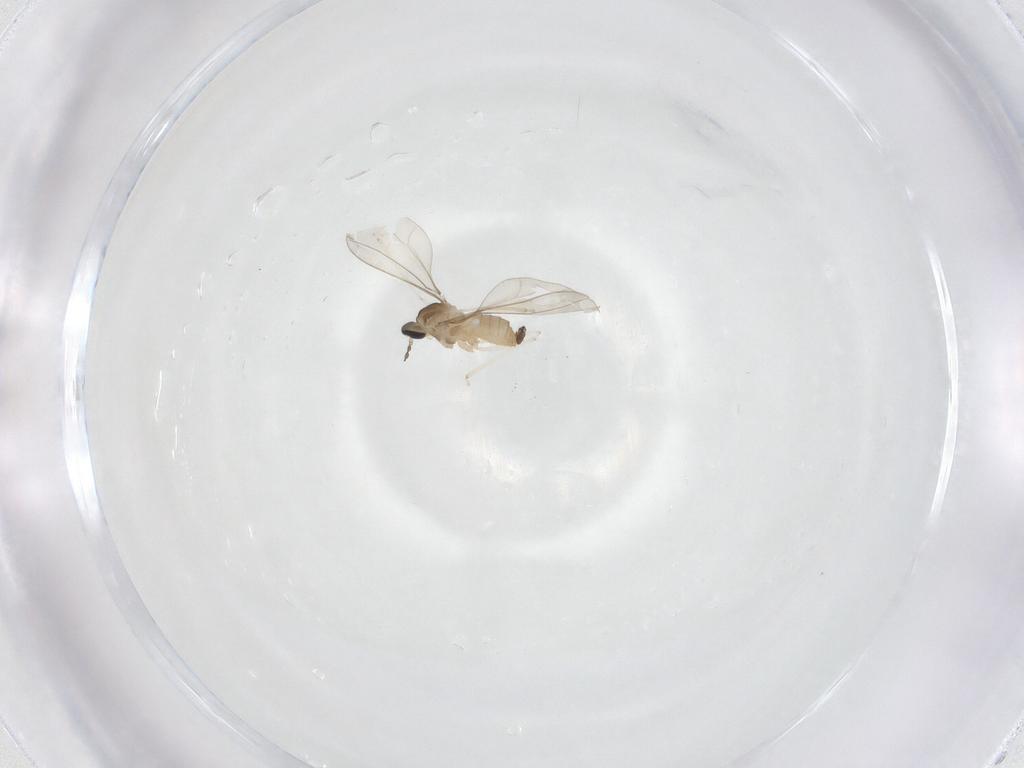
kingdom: Animalia
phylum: Arthropoda
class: Insecta
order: Diptera
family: Cecidomyiidae
